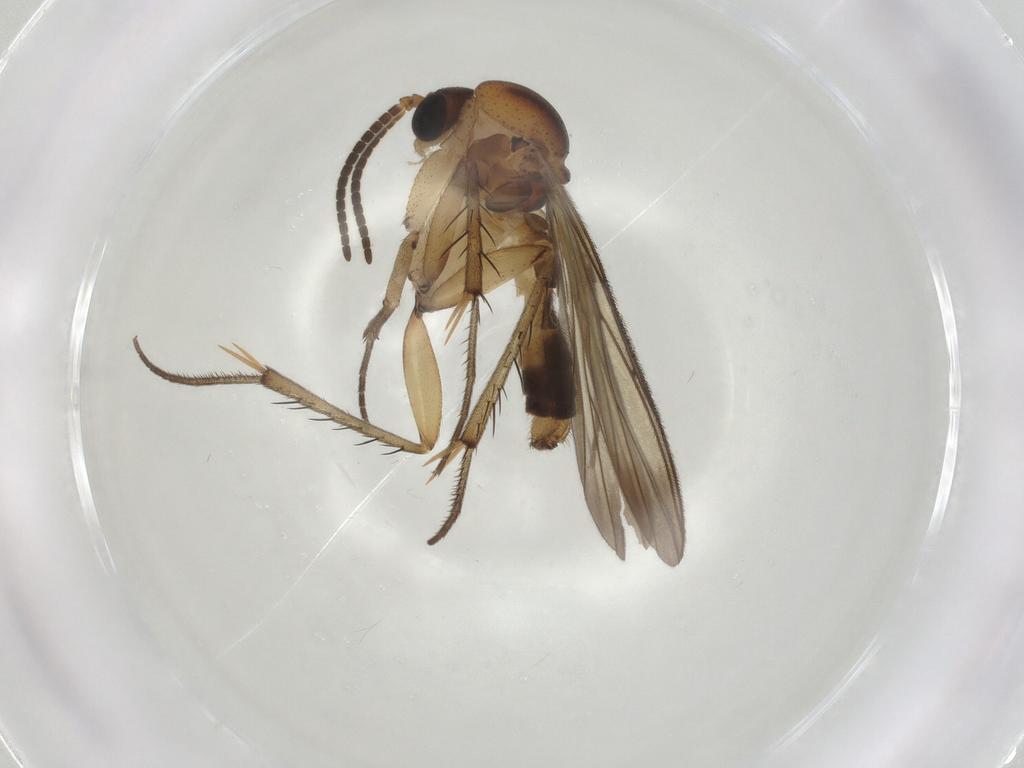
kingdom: Animalia
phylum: Arthropoda
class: Insecta
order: Diptera
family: Mycetophilidae
